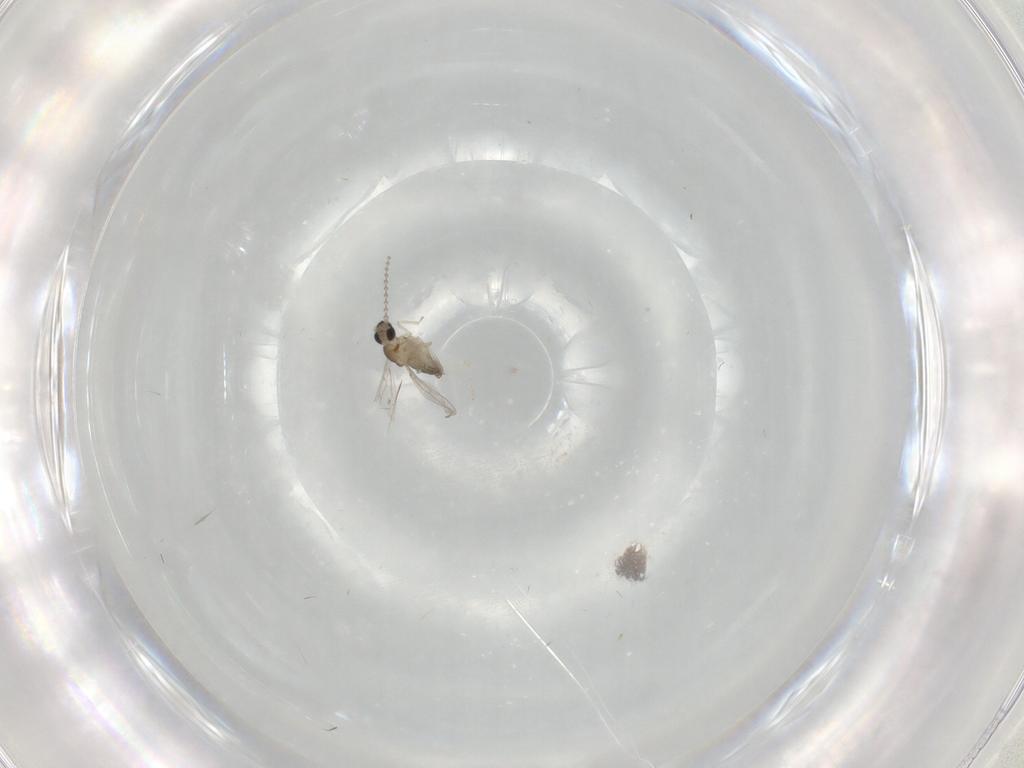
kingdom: Animalia
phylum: Arthropoda
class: Insecta
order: Diptera
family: Cecidomyiidae
